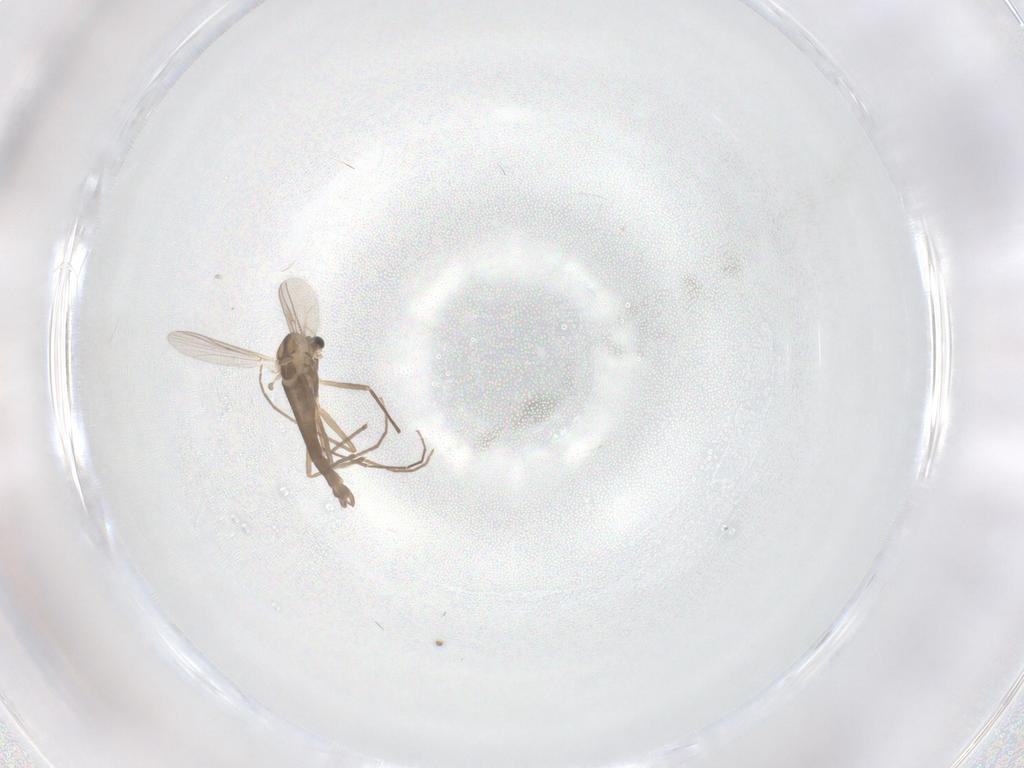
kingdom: Animalia
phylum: Arthropoda
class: Insecta
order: Diptera
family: Chironomidae
